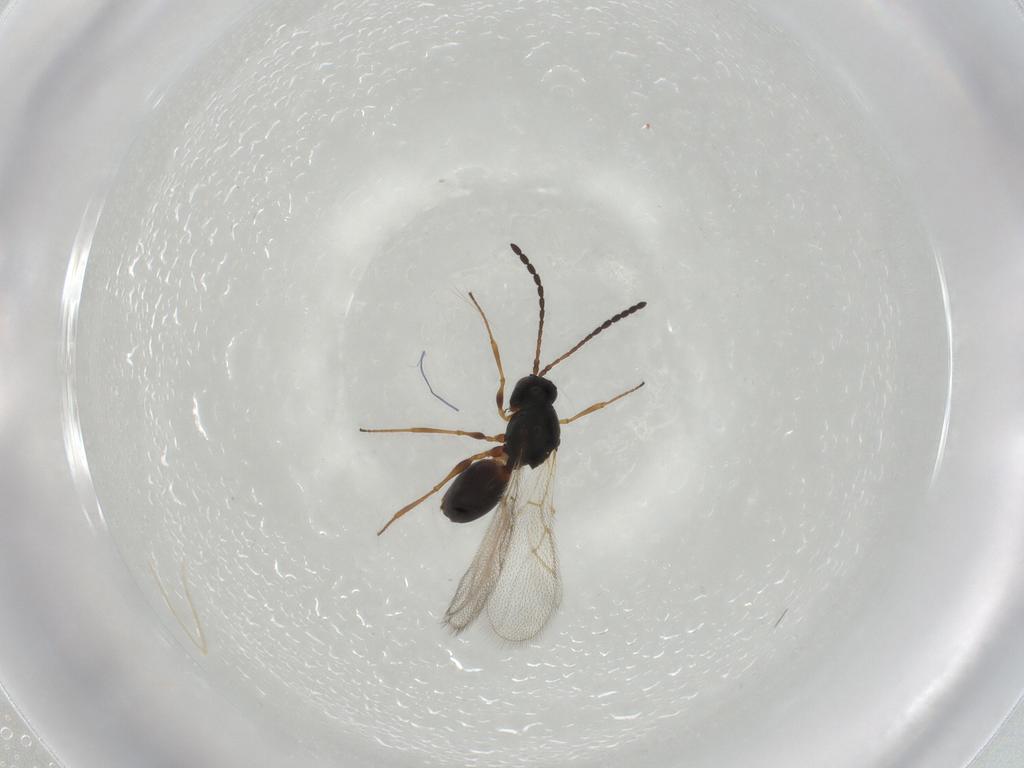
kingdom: Animalia
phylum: Arthropoda
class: Insecta
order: Hymenoptera
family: Figitidae
